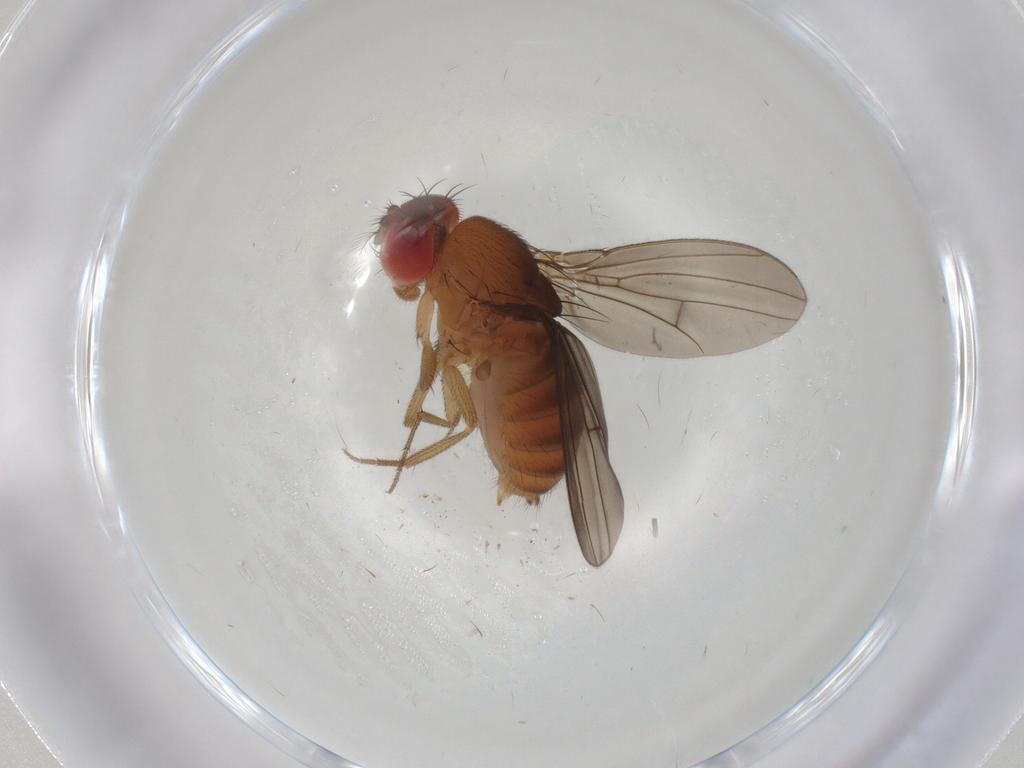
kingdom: Animalia
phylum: Arthropoda
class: Insecta
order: Diptera
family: Drosophilidae
